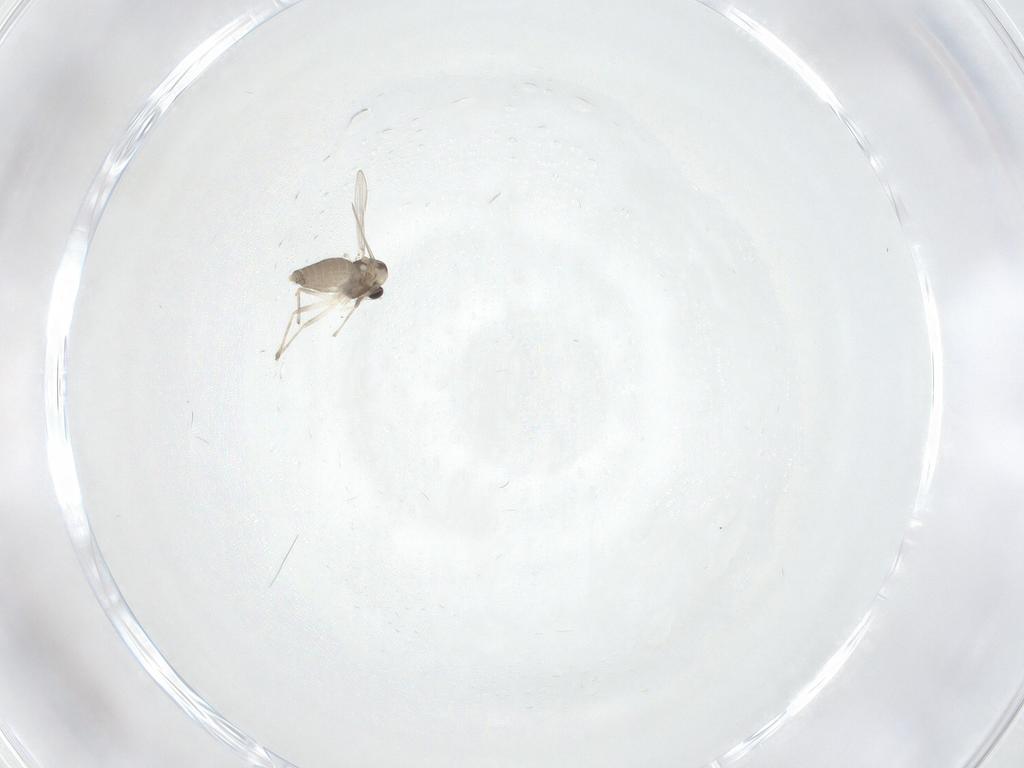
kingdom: Animalia
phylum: Arthropoda
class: Insecta
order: Diptera
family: Chironomidae
